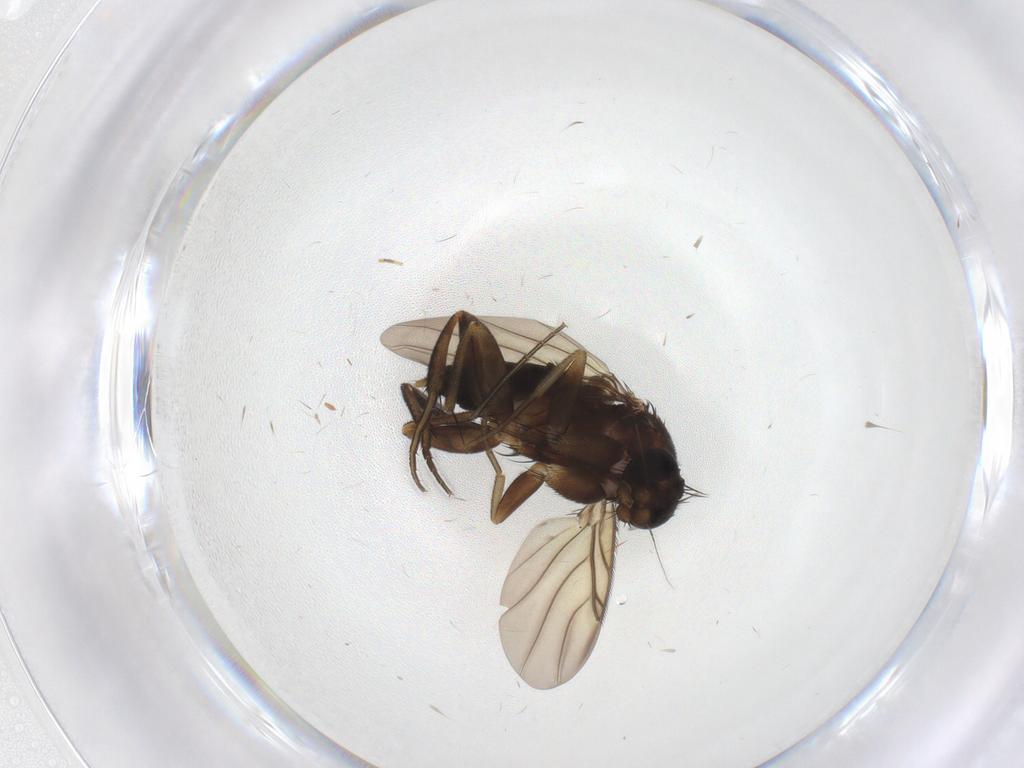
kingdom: Animalia
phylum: Arthropoda
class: Insecta
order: Diptera
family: Phoridae
